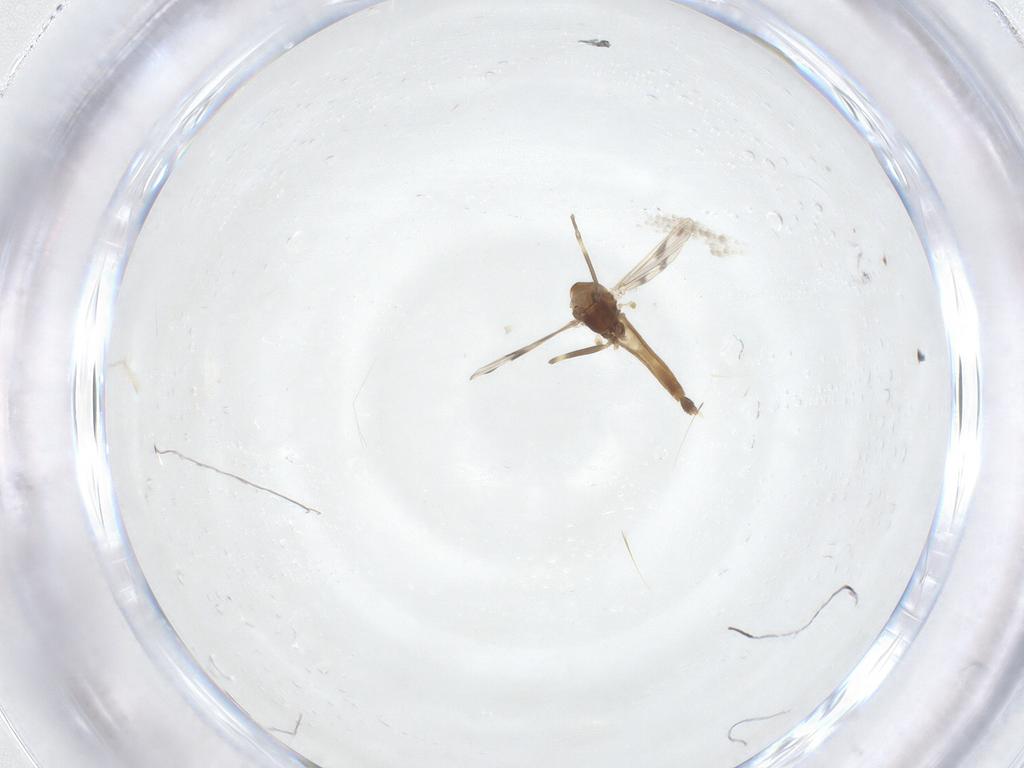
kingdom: Animalia
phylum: Arthropoda
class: Insecta
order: Diptera
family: Chironomidae
